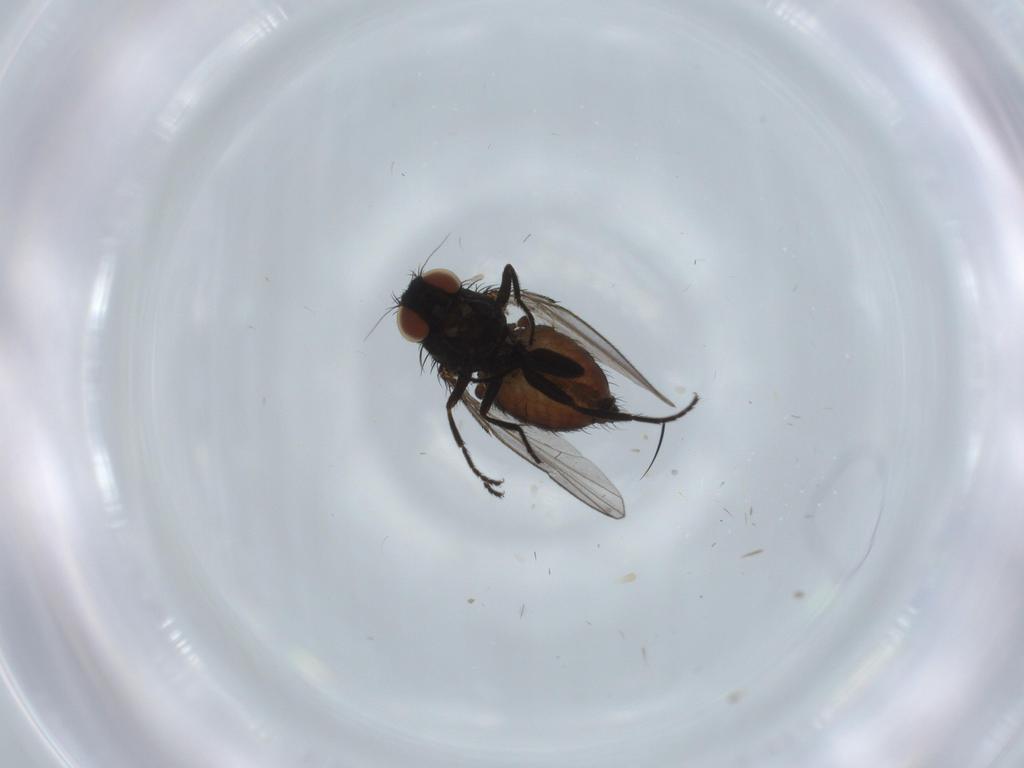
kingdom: Animalia
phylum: Arthropoda
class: Insecta
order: Diptera
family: Milichiidae
